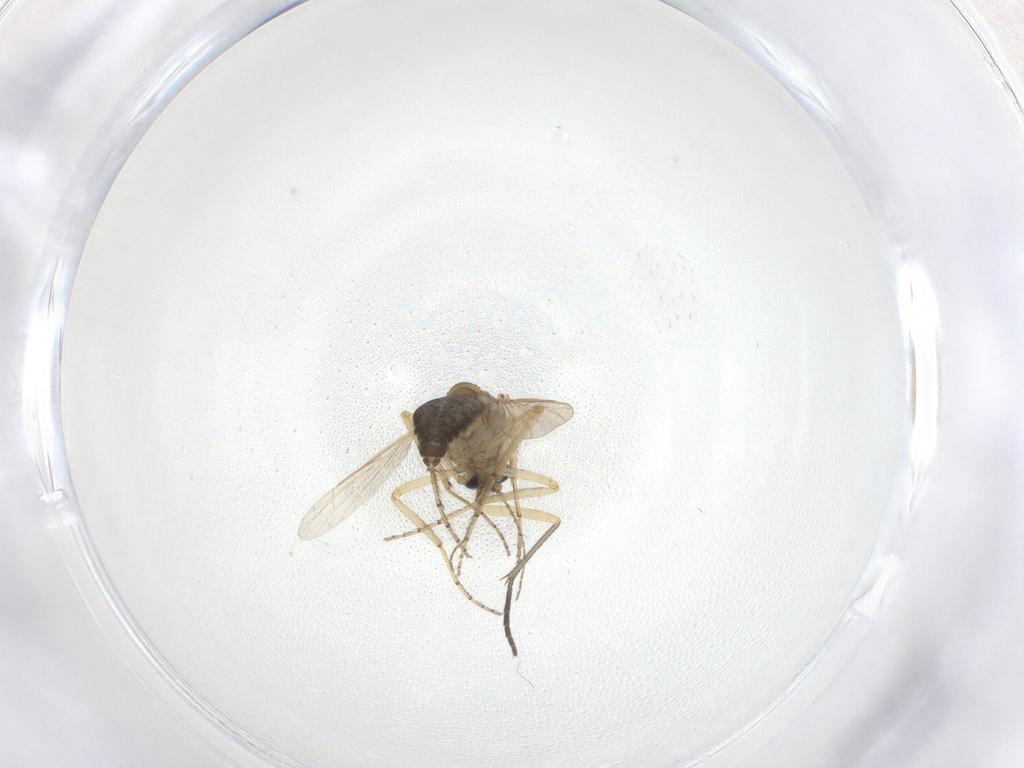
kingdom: Animalia
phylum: Arthropoda
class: Insecta
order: Diptera
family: Ceratopogonidae
